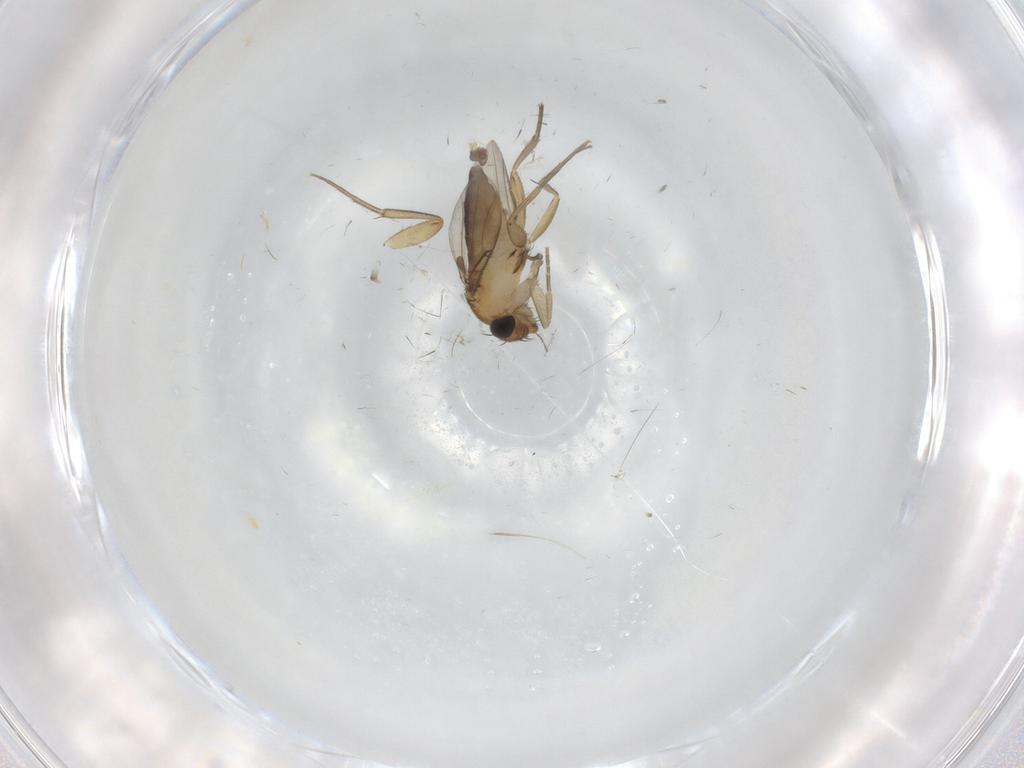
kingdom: Animalia
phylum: Arthropoda
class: Insecta
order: Diptera
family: Phoridae
